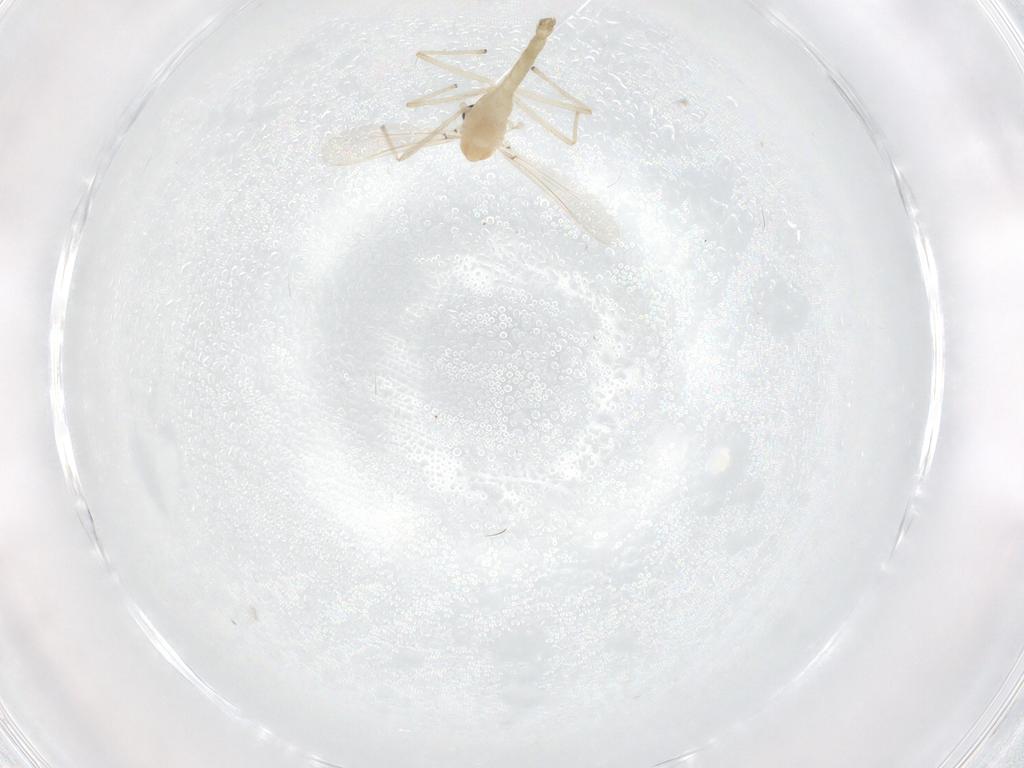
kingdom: Animalia
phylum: Arthropoda
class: Insecta
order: Diptera
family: Chironomidae
